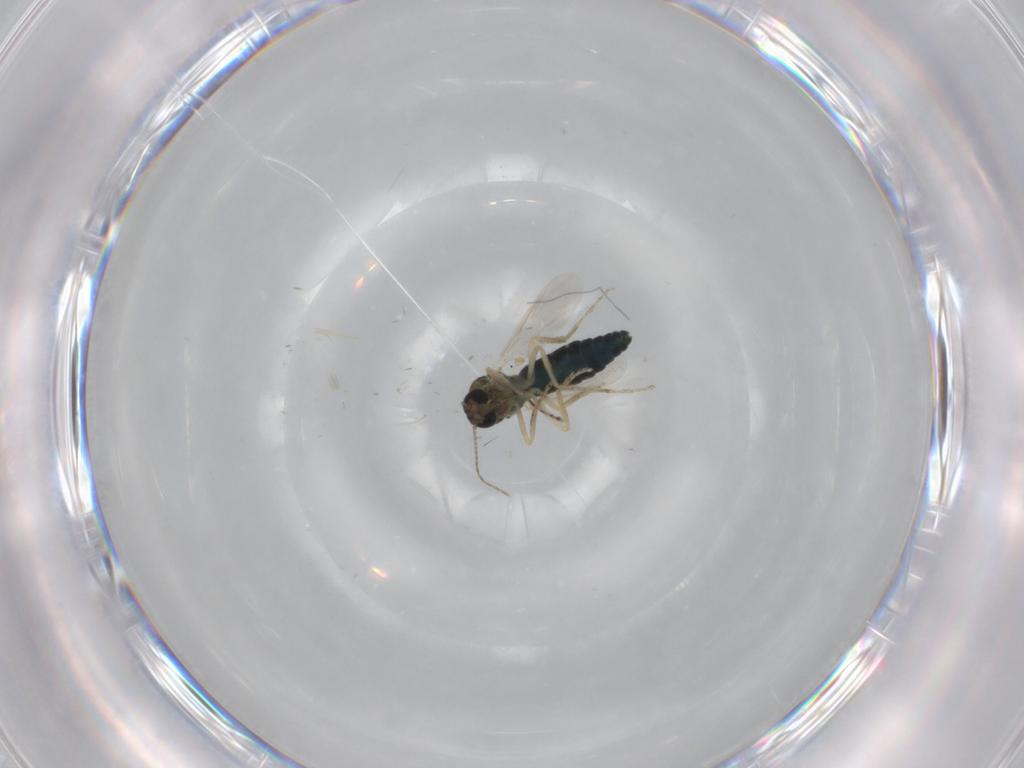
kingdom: Animalia
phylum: Arthropoda
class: Insecta
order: Diptera
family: Ceratopogonidae
